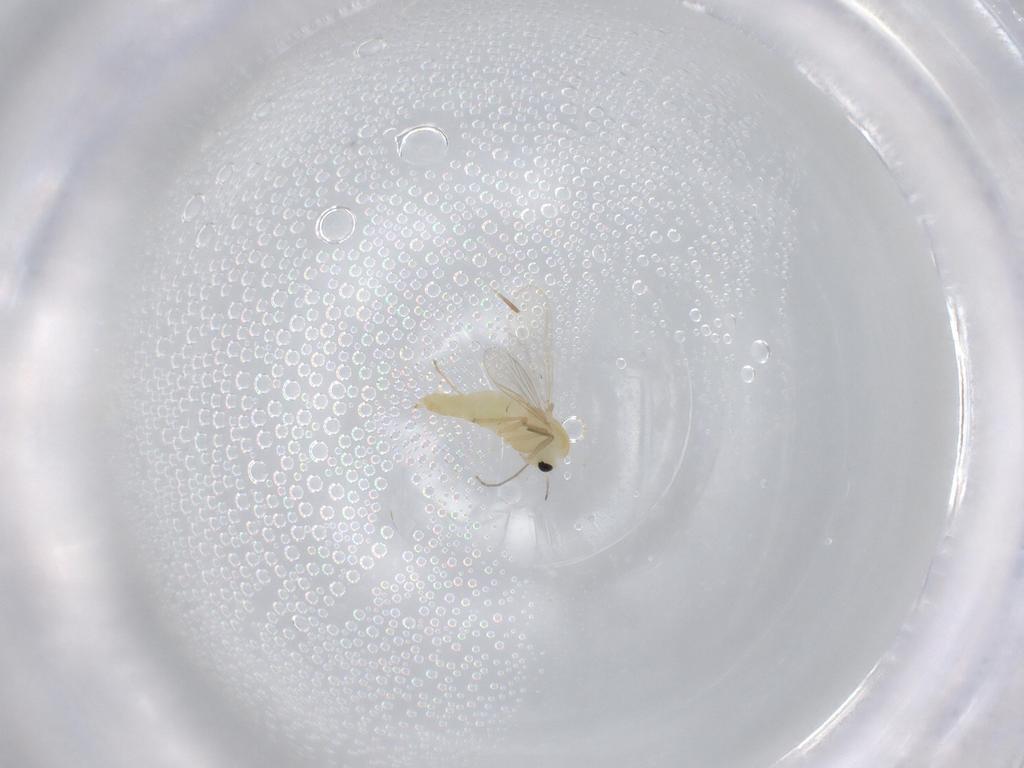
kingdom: Animalia
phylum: Arthropoda
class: Insecta
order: Diptera
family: Chironomidae
